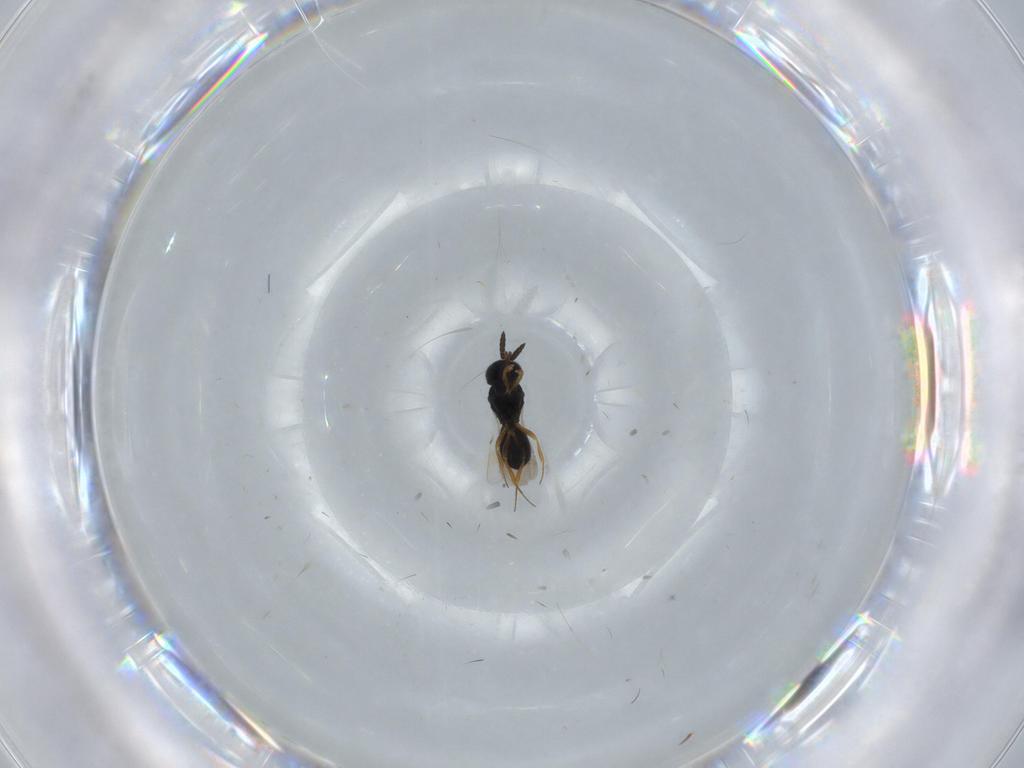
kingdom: Animalia
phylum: Arthropoda
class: Insecta
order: Hymenoptera
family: Scelionidae
